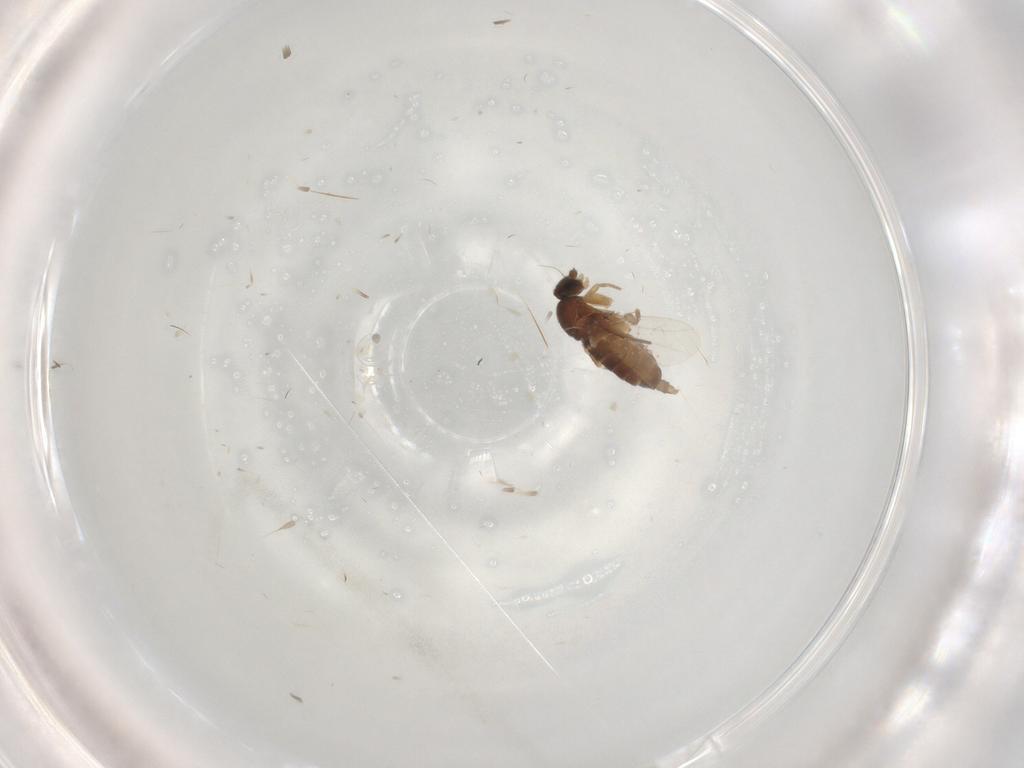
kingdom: Animalia
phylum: Arthropoda
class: Insecta
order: Diptera
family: Phoridae
